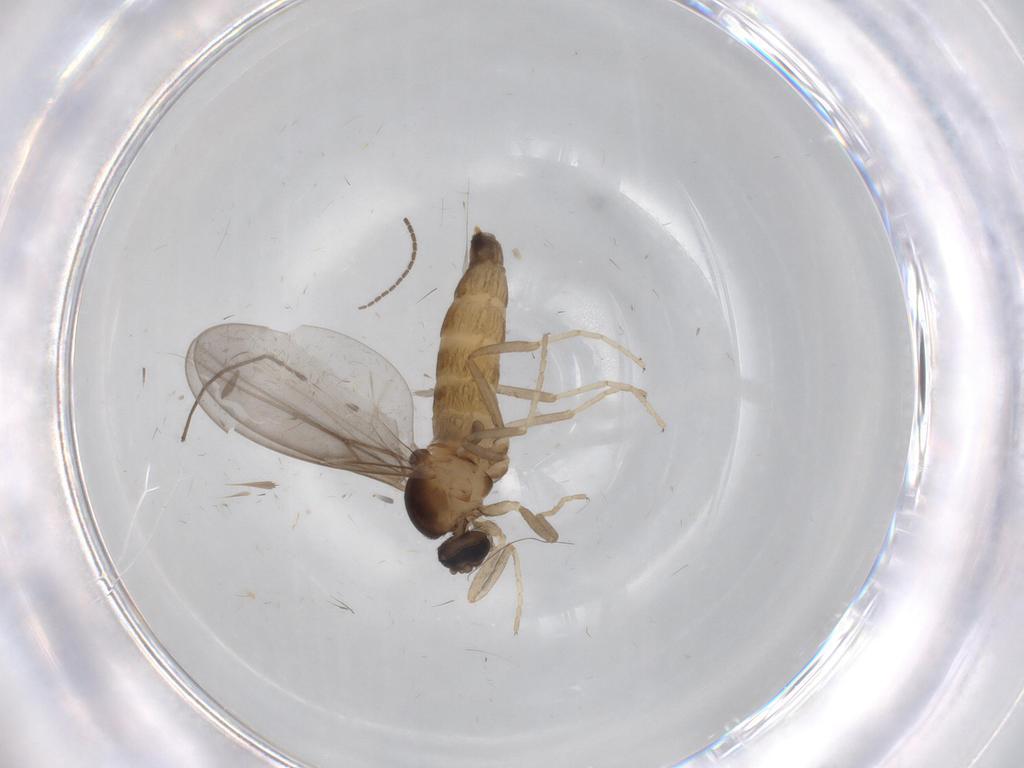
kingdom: Animalia
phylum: Arthropoda
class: Insecta
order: Diptera
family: Cecidomyiidae
